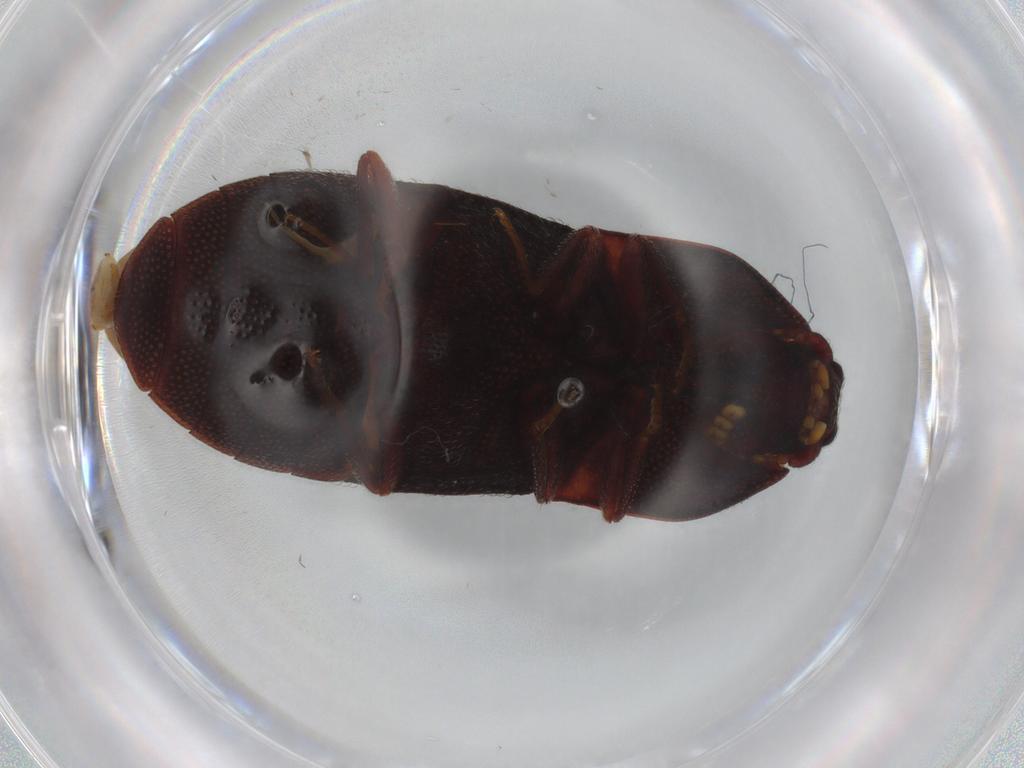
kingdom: Animalia
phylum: Arthropoda
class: Insecta
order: Coleoptera
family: Elateridae
